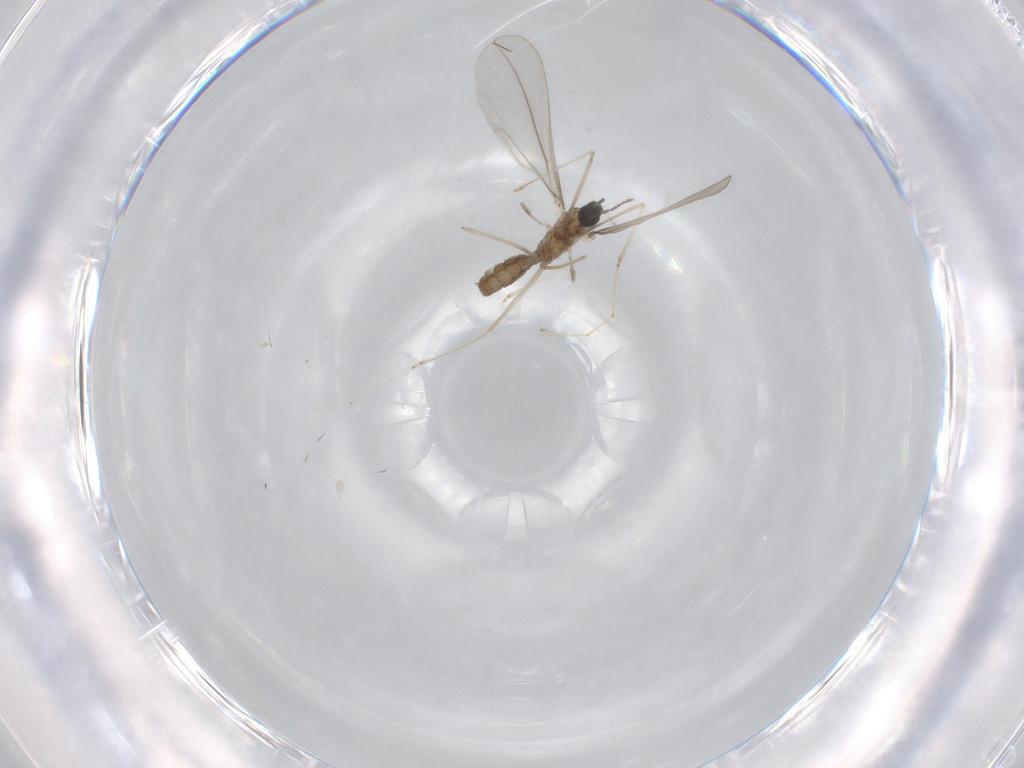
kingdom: Animalia
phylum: Arthropoda
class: Insecta
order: Diptera
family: Cecidomyiidae
